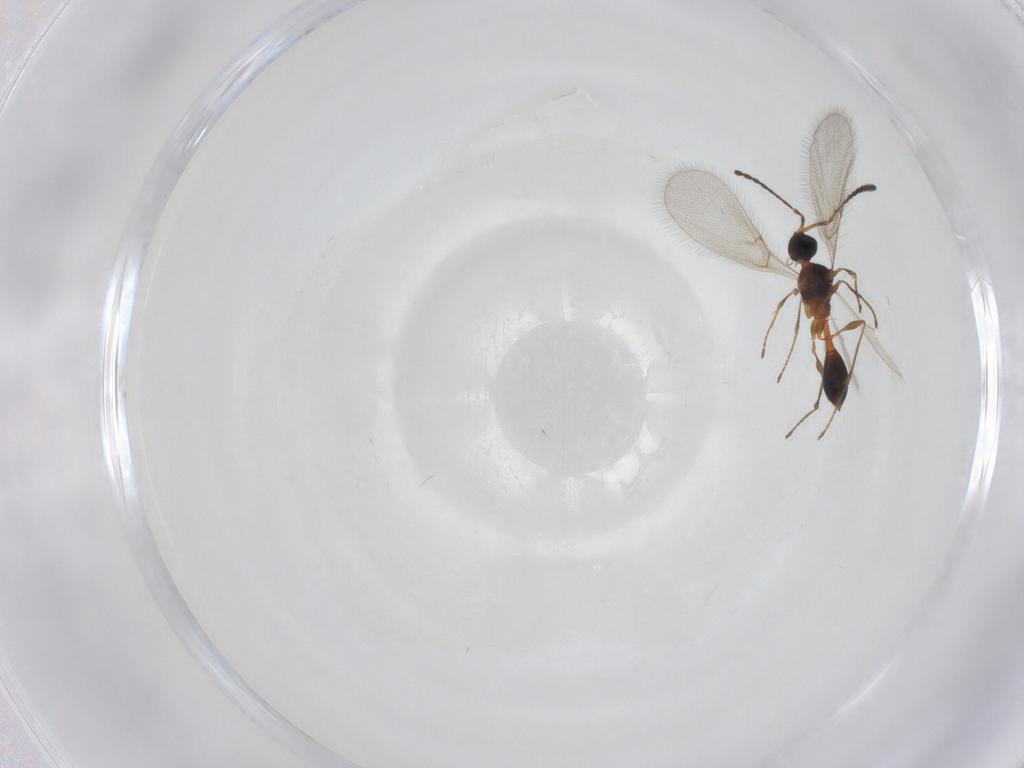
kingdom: Animalia
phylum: Arthropoda
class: Insecta
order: Hymenoptera
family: Diapriidae
